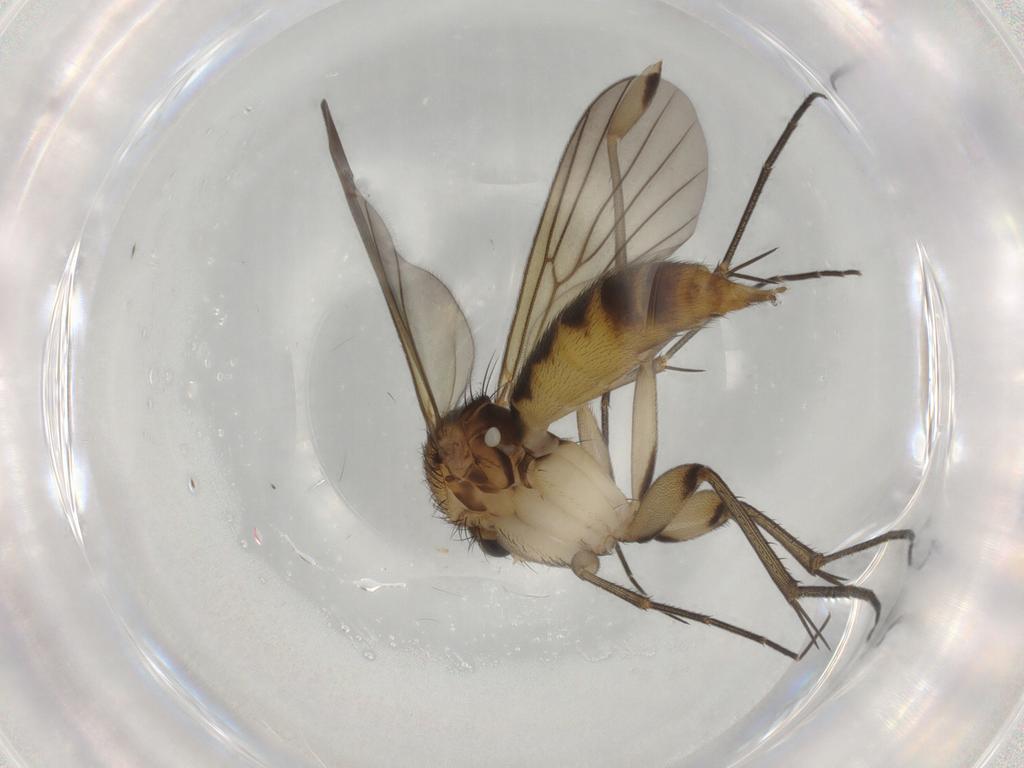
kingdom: Animalia
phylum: Arthropoda
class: Insecta
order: Diptera
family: Mycetophilidae
